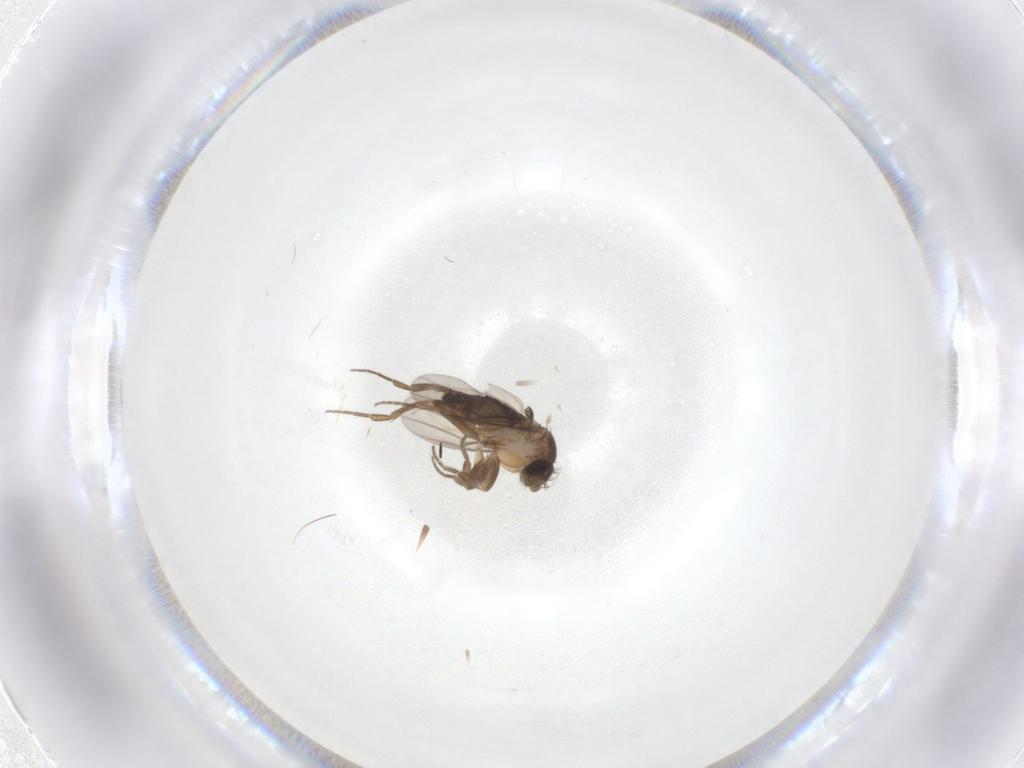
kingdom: Animalia
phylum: Arthropoda
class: Insecta
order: Diptera
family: Phoridae
